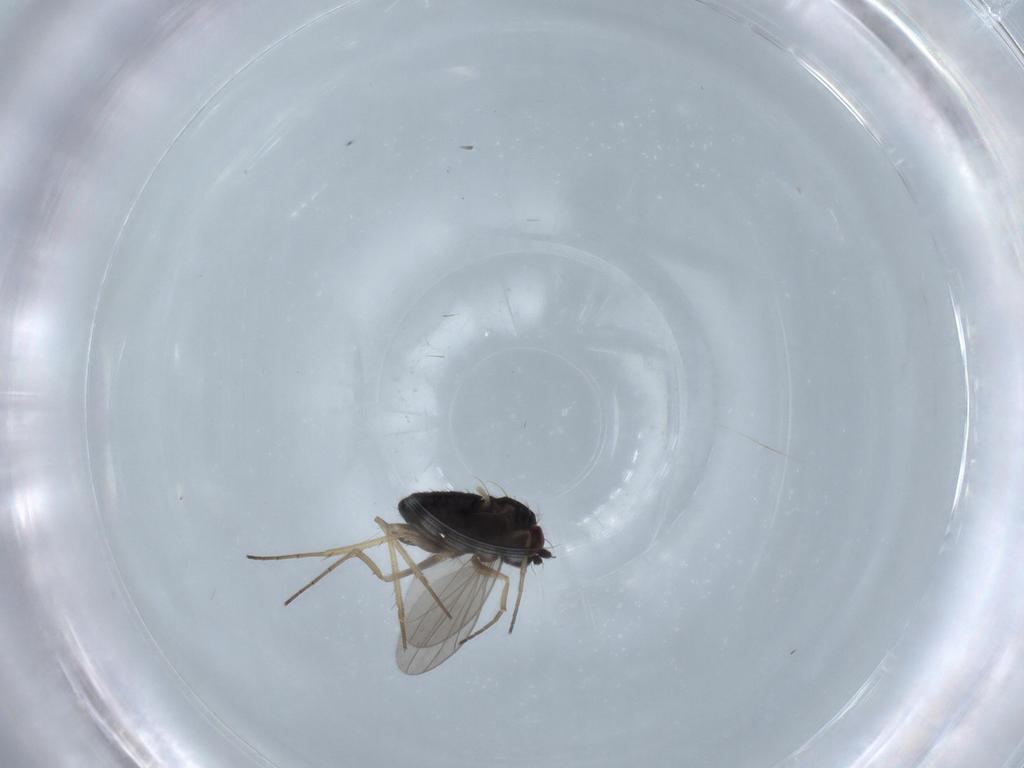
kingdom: Animalia
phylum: Arthropoda
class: Insecta
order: Diptera
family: Dolichopodidae
